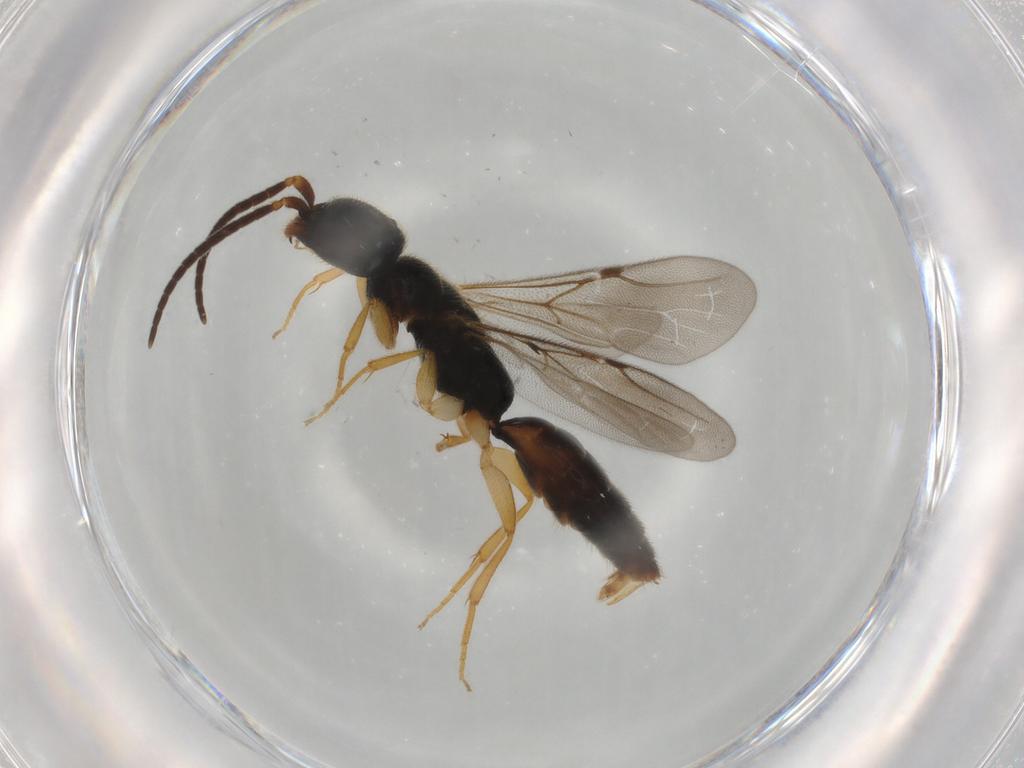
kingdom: Animalia
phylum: Arthropoda
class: Insecta
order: Hymenoptera
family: Bethylidae
